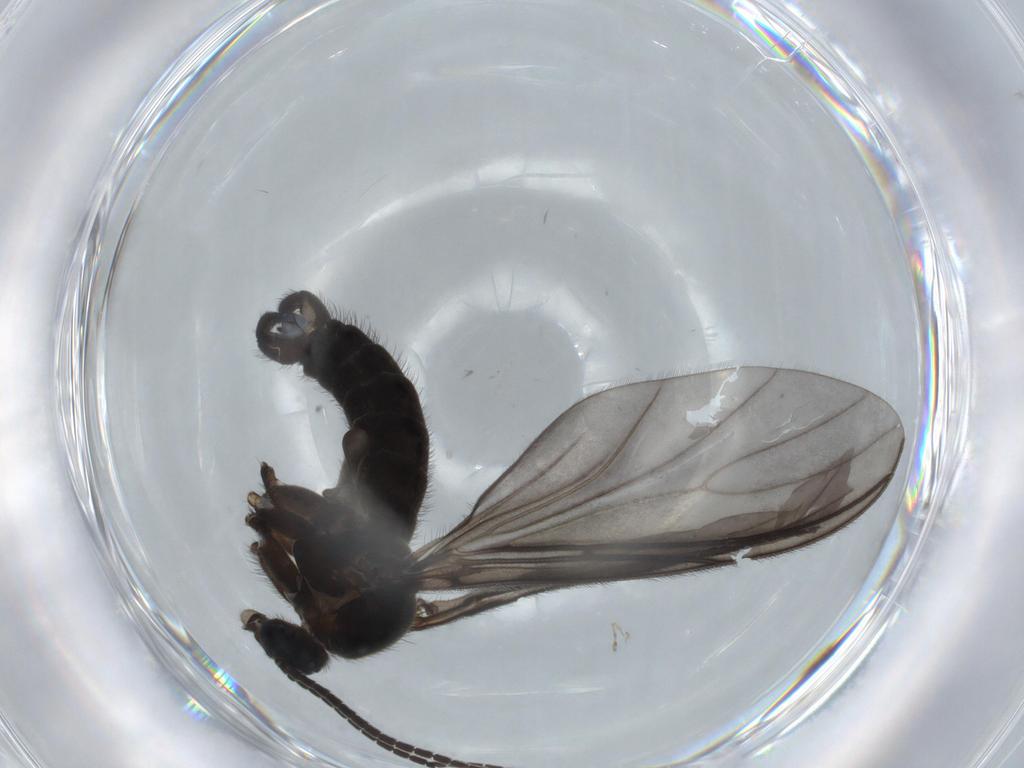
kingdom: Animalia
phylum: Arthropoda
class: Insecta
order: Diptera
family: Sciaridae
